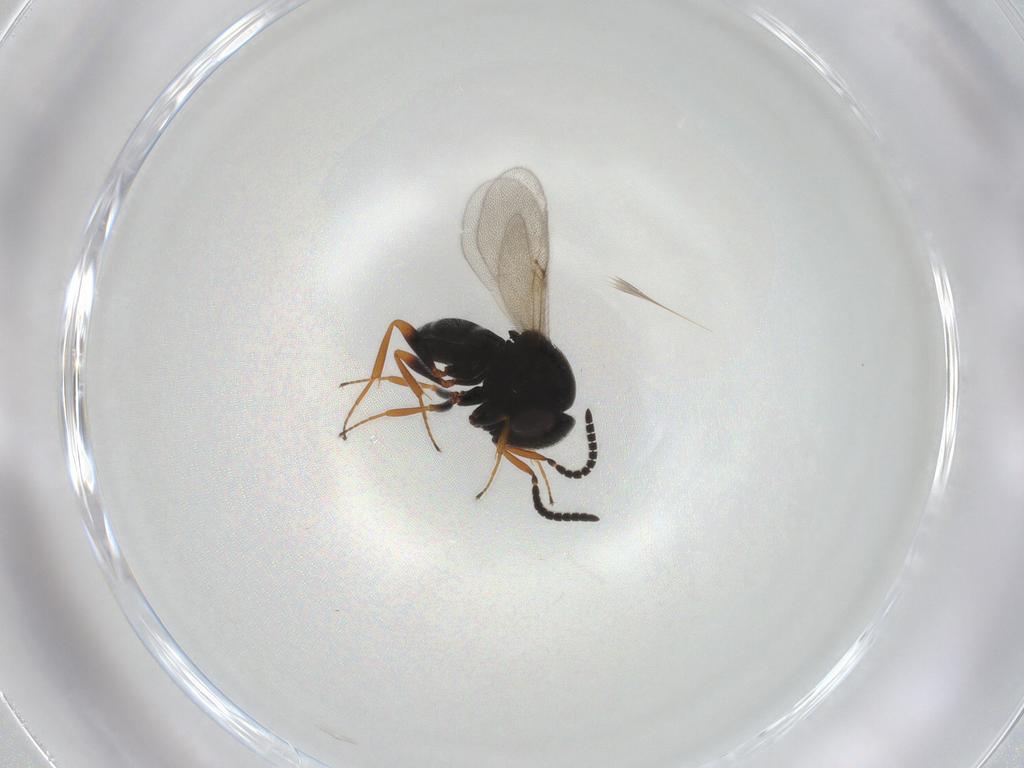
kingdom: Animalia
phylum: Arthropoda
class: Insecta
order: Hymenoptera
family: Scelionidae
